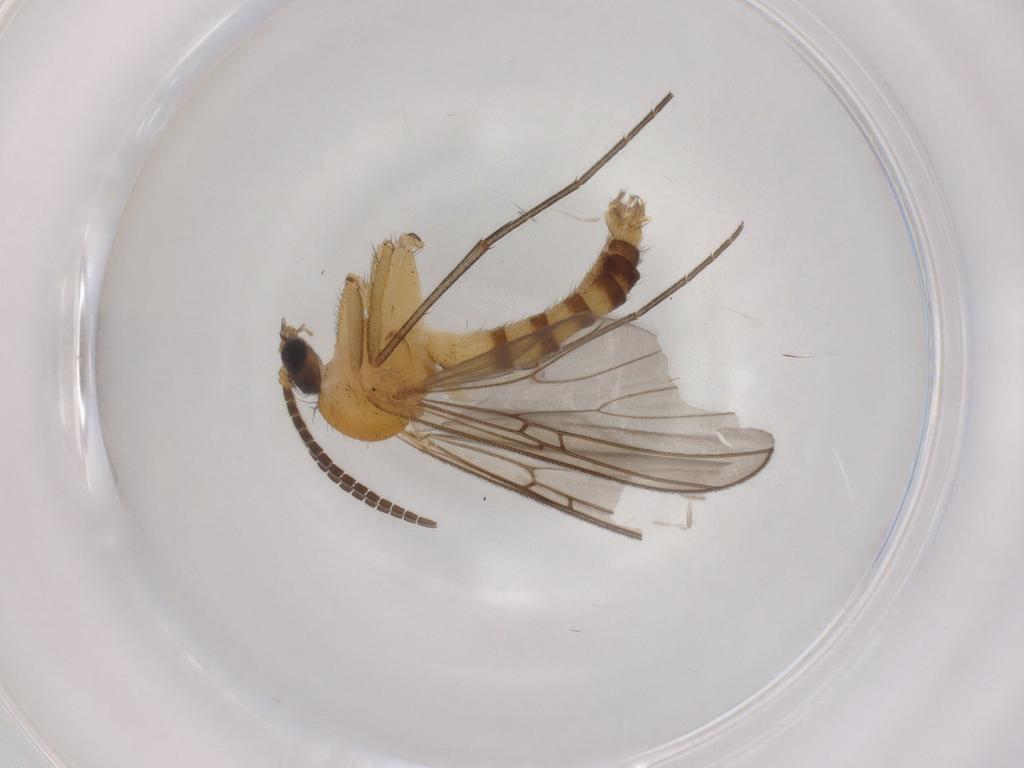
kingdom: Animalia
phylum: Arthropoda
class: Insecta
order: Diptera
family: Mycetophilidae
